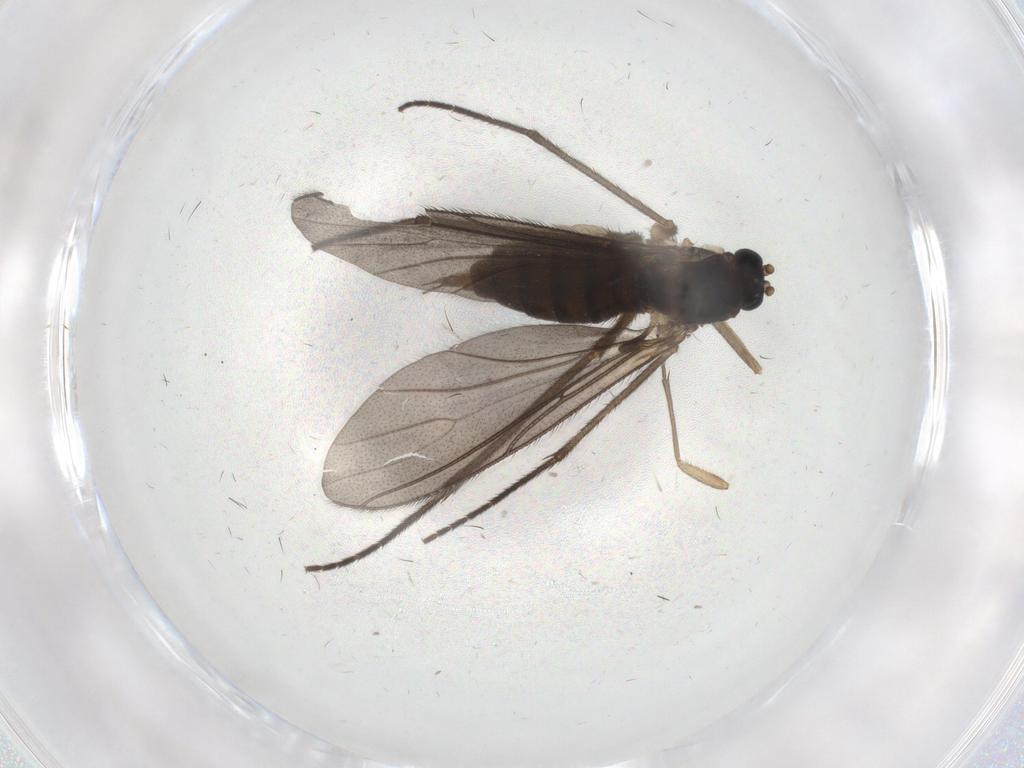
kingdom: Animalia
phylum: Arthropoda
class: Insecta
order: Diptera
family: Sciaridae
